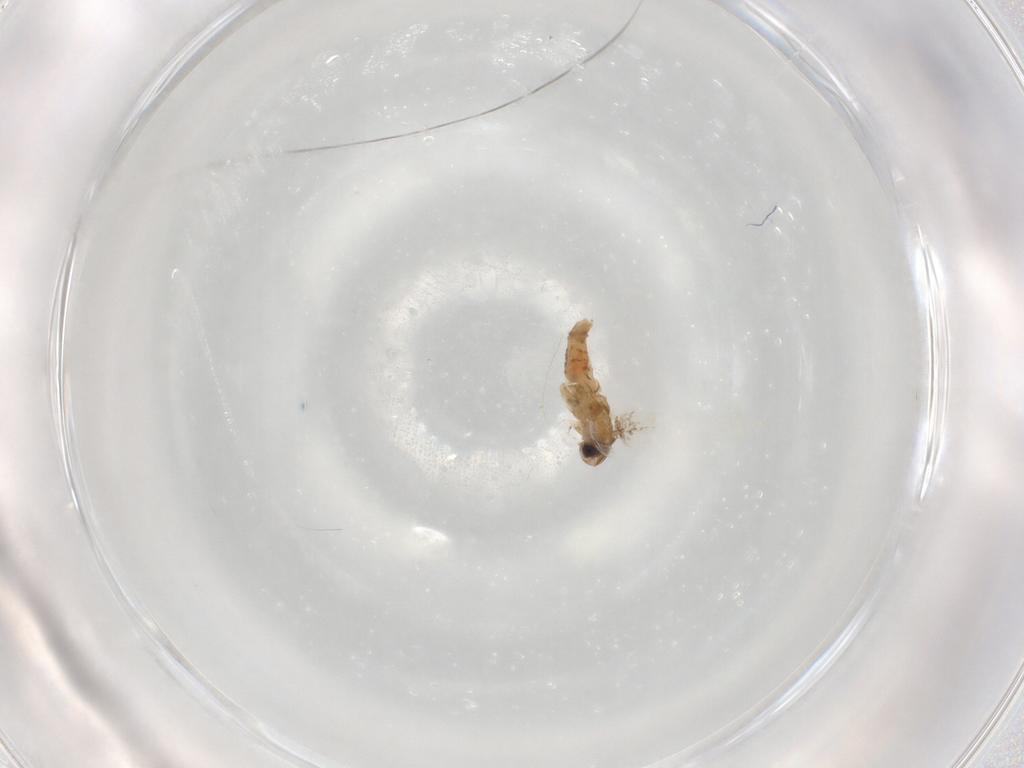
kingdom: Animalia
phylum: Arthropoda
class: Insecta
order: Lepidoptera
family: Gracillariidae
